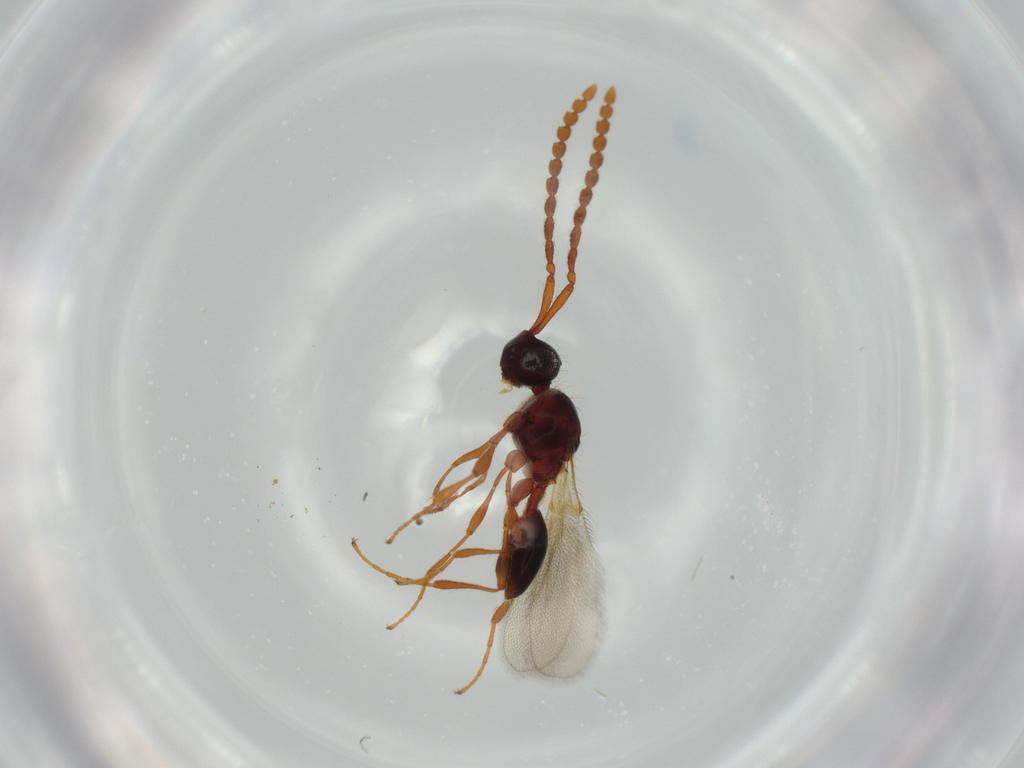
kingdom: Animalia
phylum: Arthropoda
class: Insecta
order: Hymenoptera
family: Diapriidae
